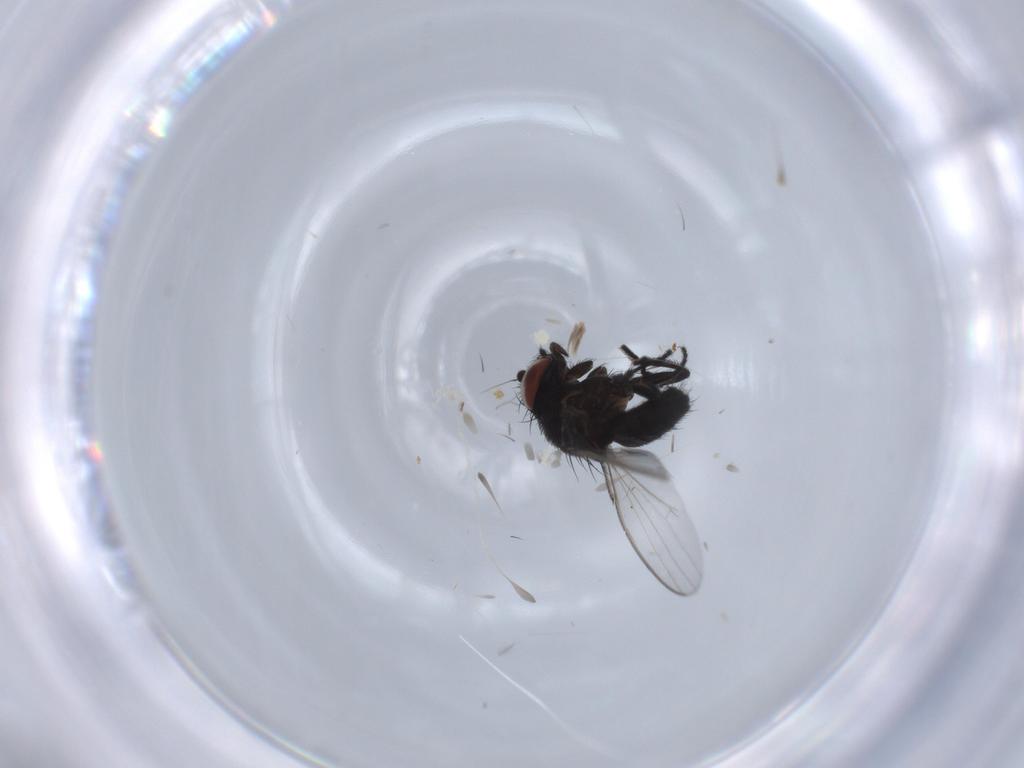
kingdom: Animalia
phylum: Arthropoda
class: Insecta
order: Diptera
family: Milichiidae
